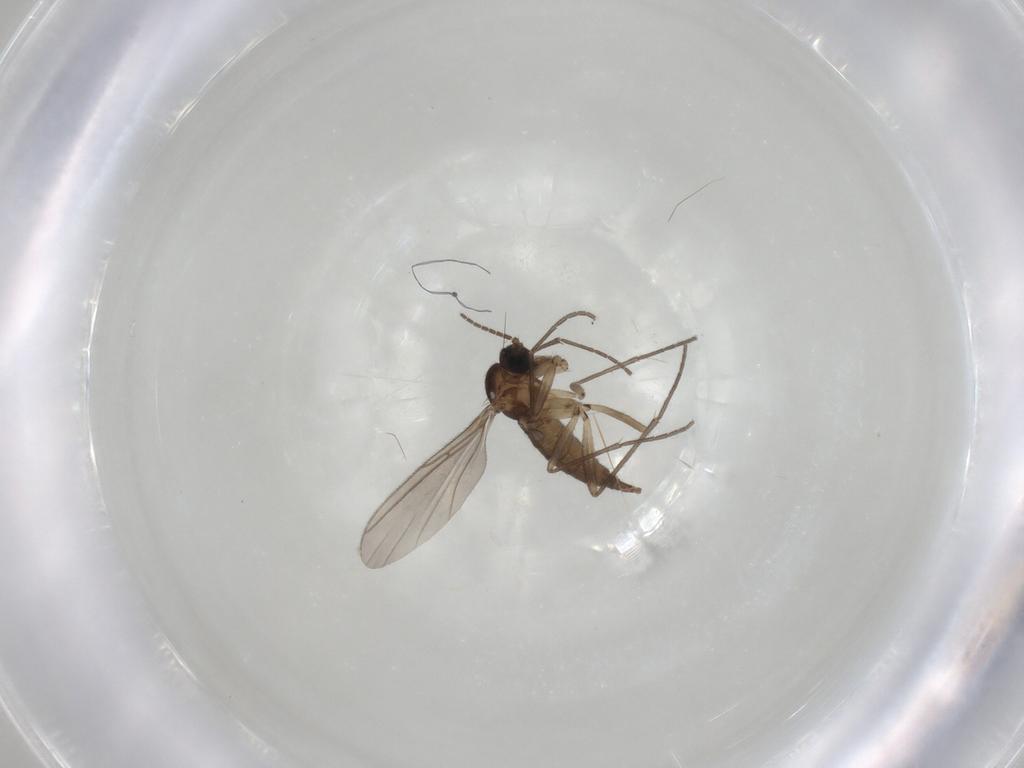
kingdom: Animalia
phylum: Arthropoda
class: Insecta
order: Diptera
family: Sciaridae
